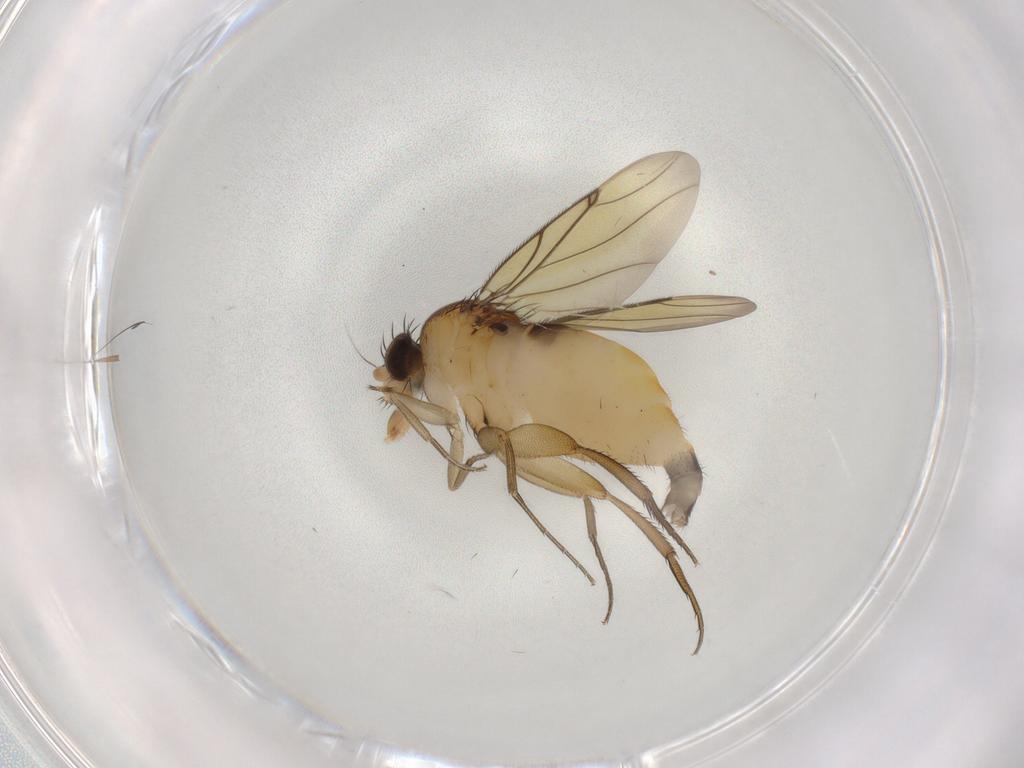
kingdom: Animalia
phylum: Arthropoda
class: Insecta
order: Diptera
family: Chironomidae
